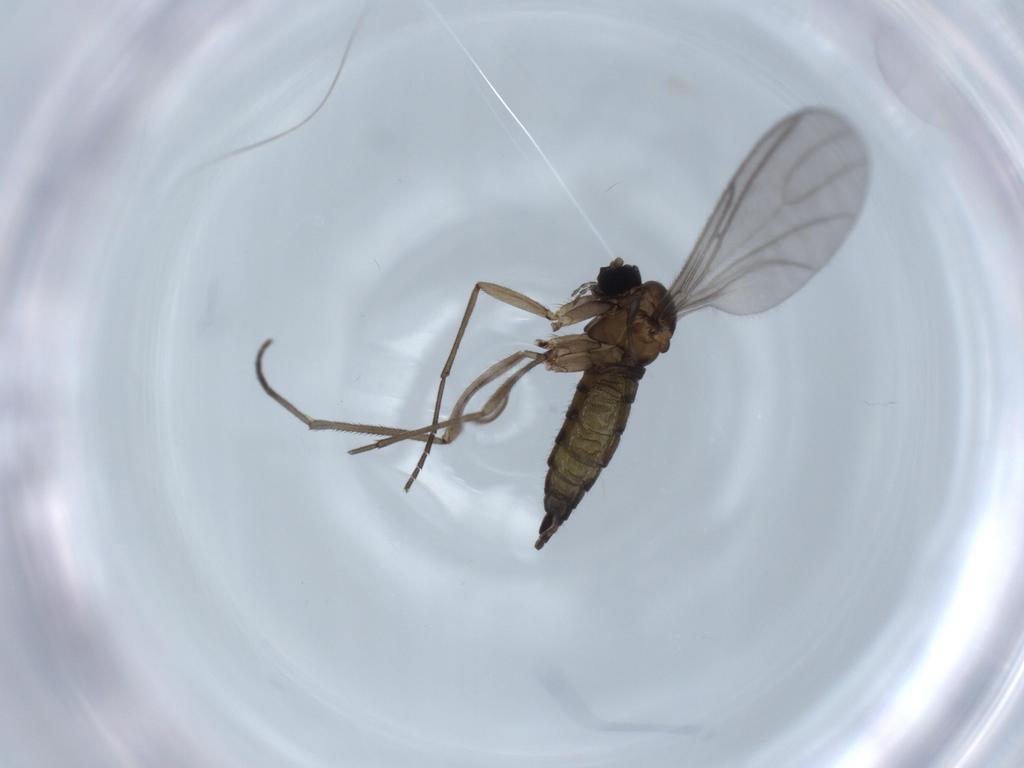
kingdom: Animalia
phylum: Arthropoda
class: Insecta
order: Diptera
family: Sciaridae
